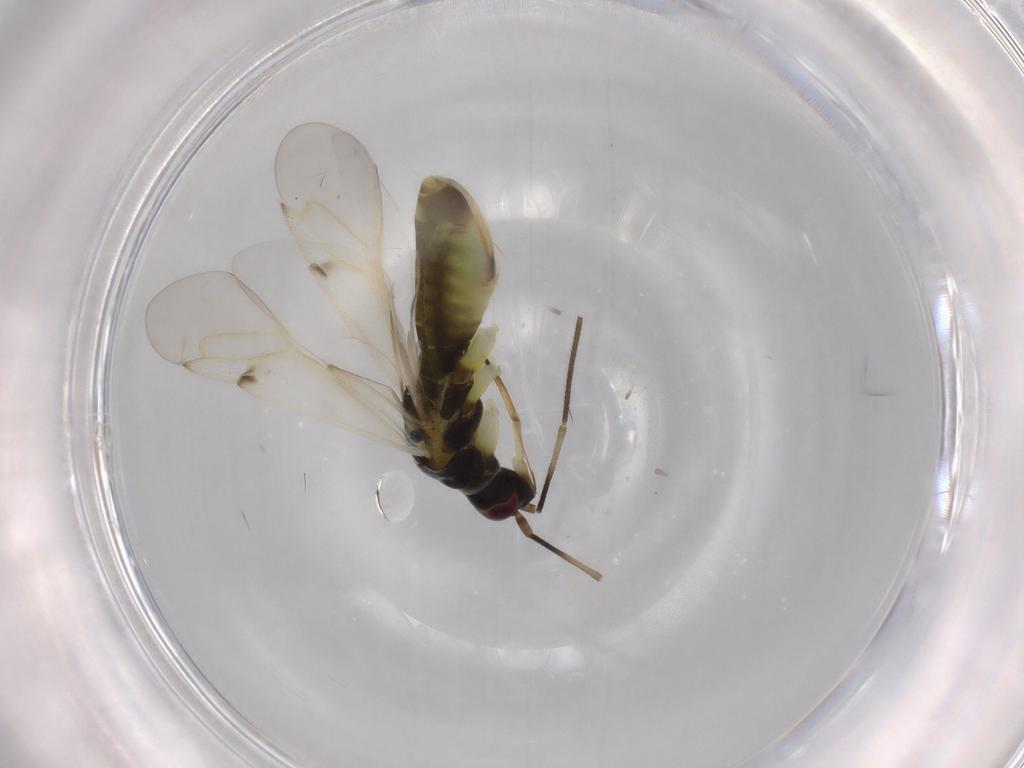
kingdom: Animalia
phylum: Arthropoda
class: Insecta
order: Hemiptera
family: Miridae
